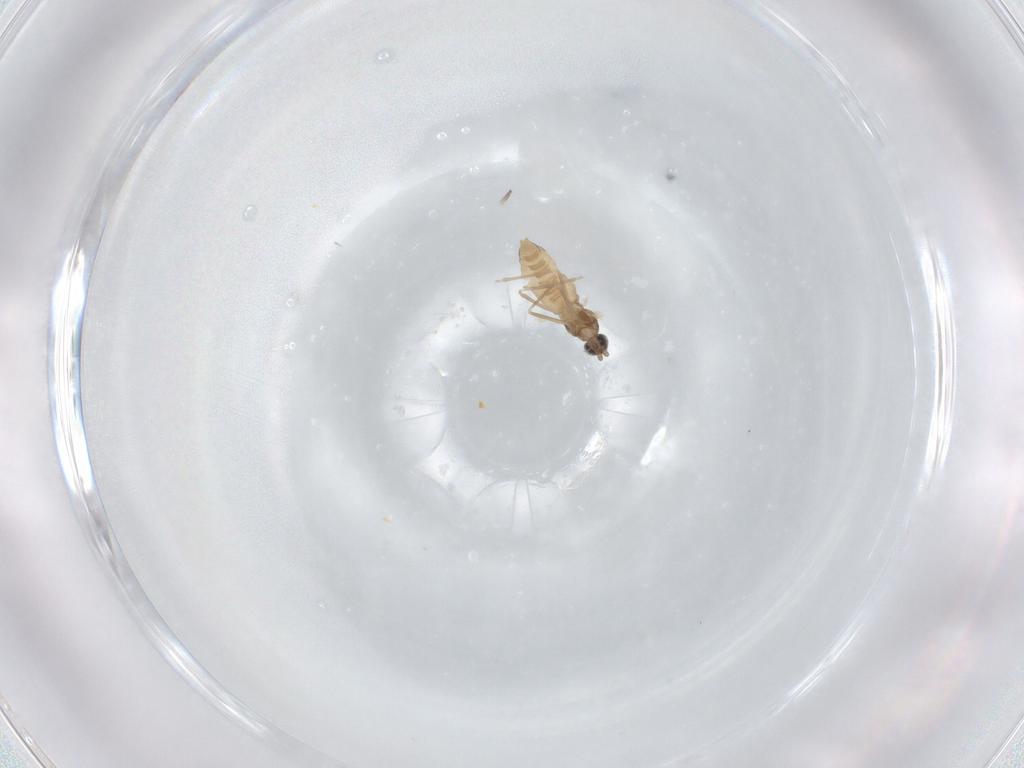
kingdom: Animalia
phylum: Arthropoda
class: Insecta
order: Diptera
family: Cecidomyiidae
